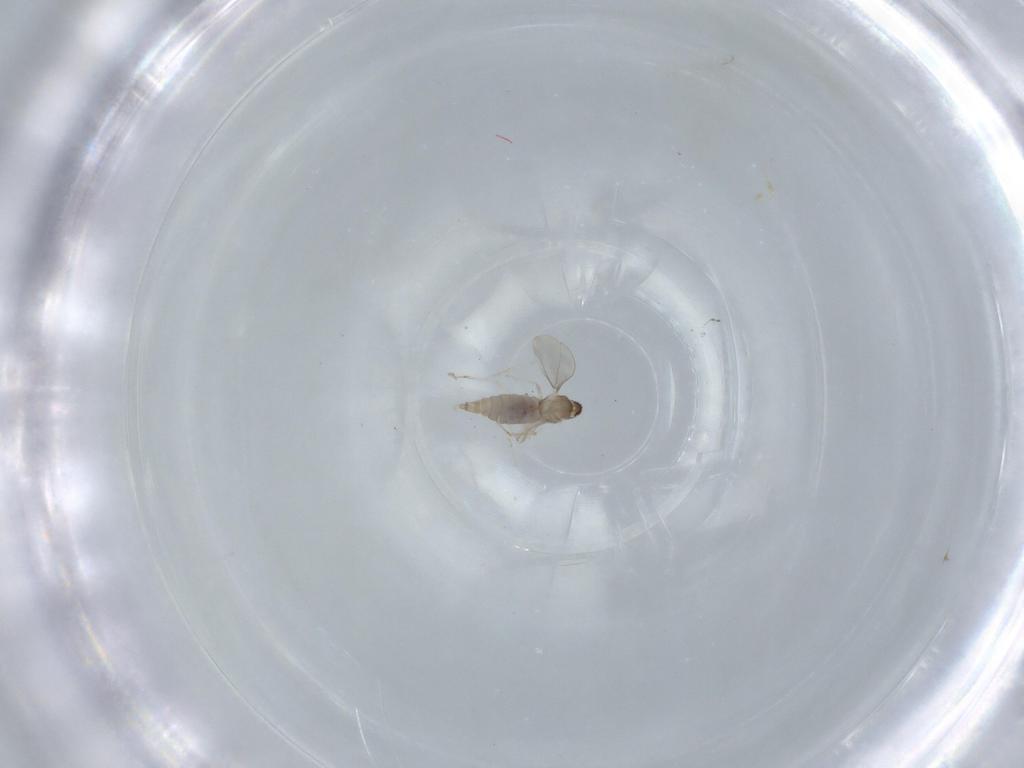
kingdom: Animalia
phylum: Arthropoda
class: Insecta
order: Diptera
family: Cecidomyiidae
